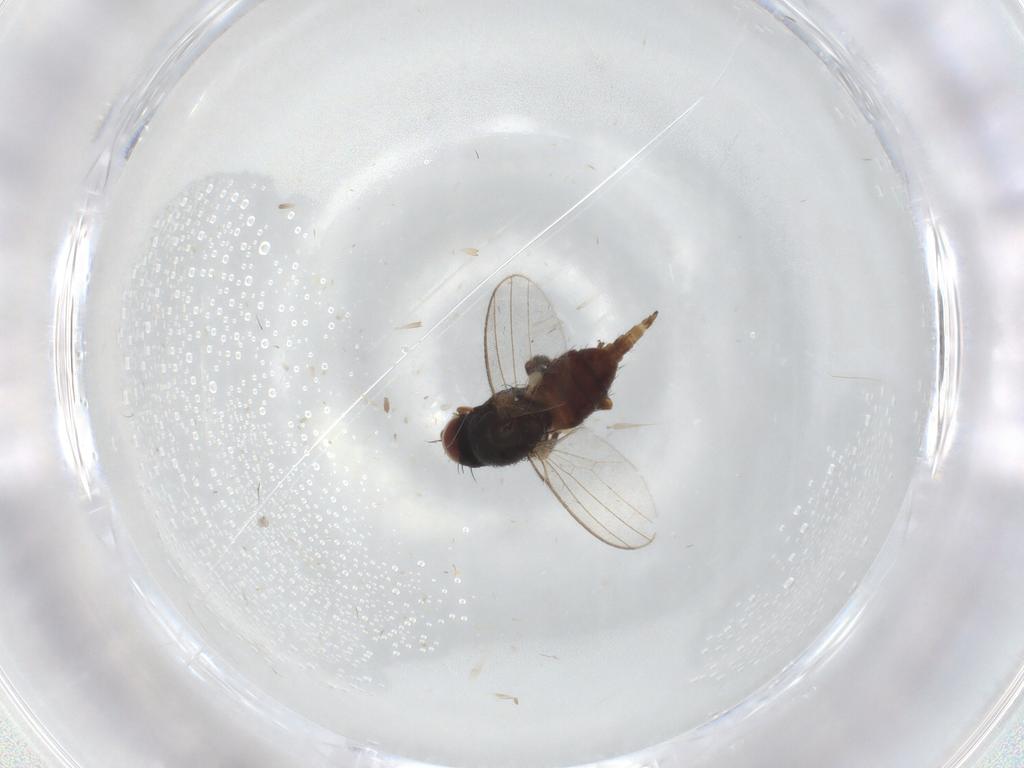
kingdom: Animalia
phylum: Arthropoda
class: Insecta
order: Diptera
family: Milichiidae
